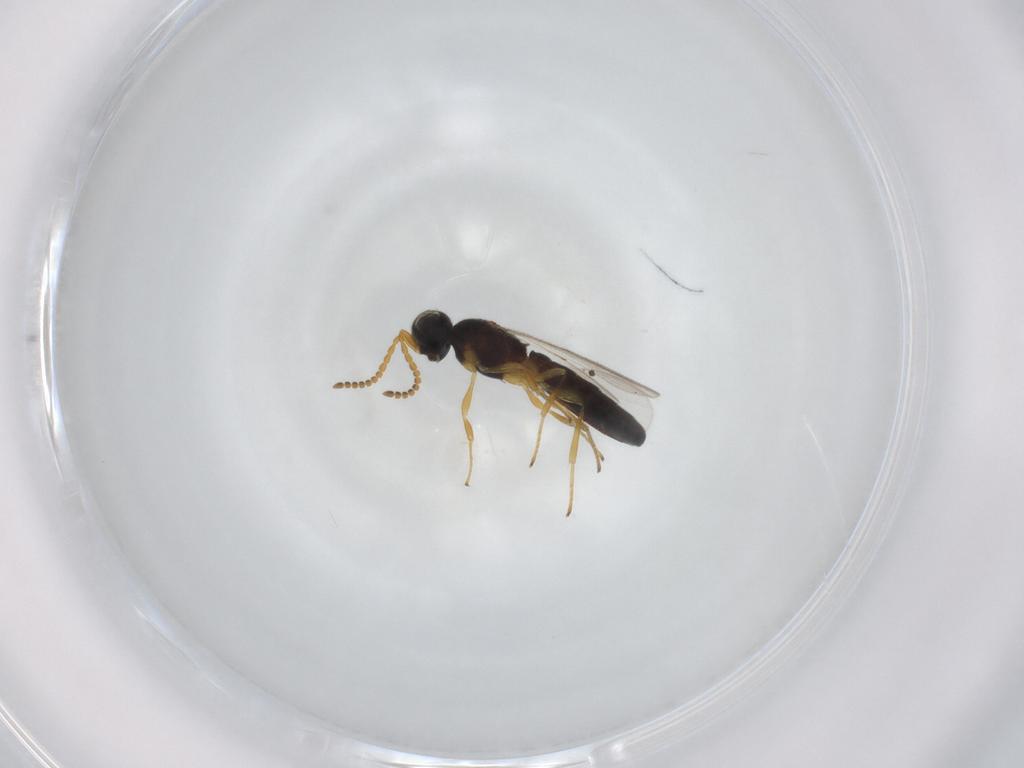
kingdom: Animalia
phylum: Arthropoda
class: Insecta
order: Hymenoptera
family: Scelionidae
